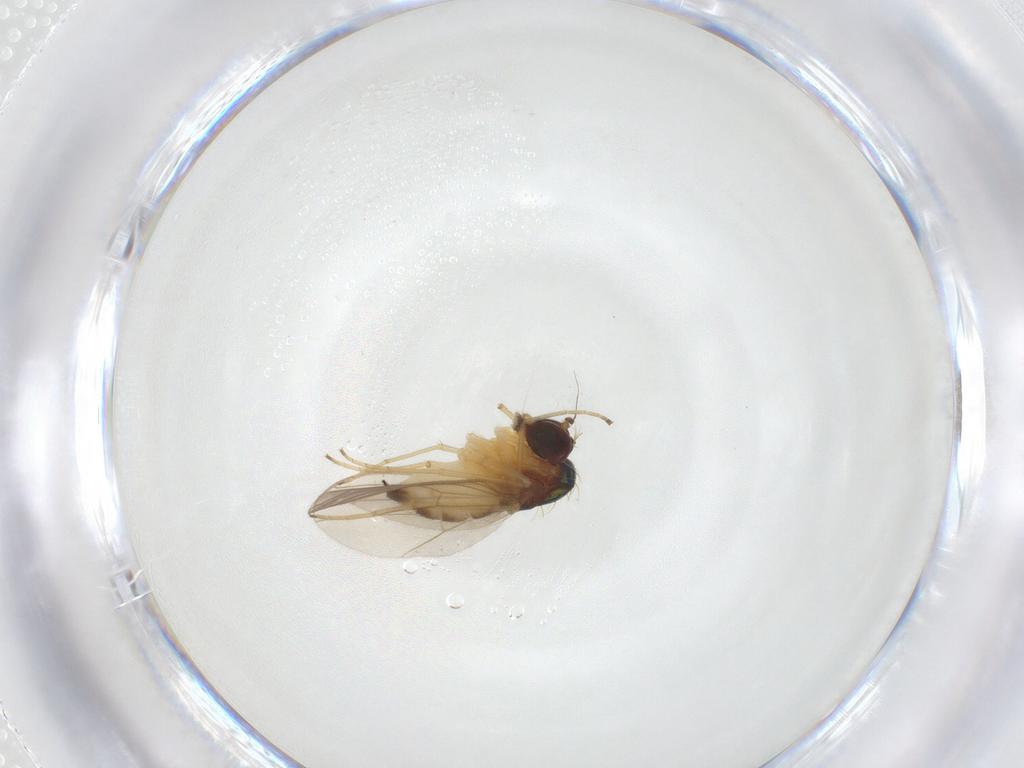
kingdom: Animalia
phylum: Arthropoda
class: Insecta
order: Diptera
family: Dolichopodidae
